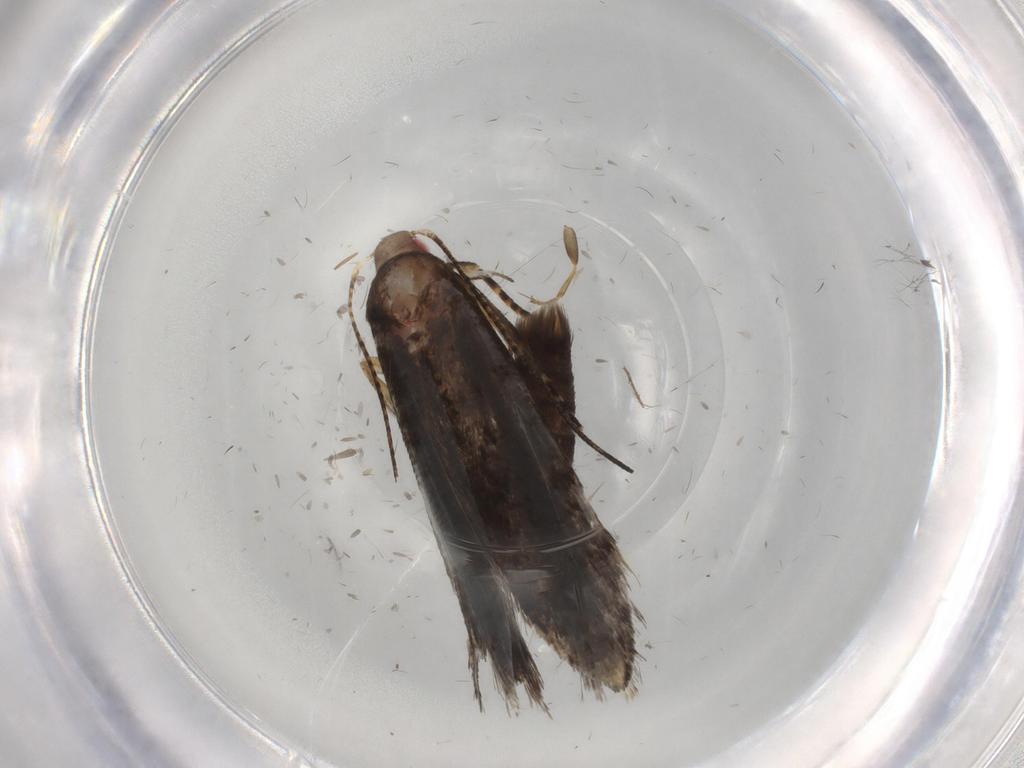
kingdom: Animalia
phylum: Arthropoda
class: Insecta
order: Lepidoptera
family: Gelechiidae
